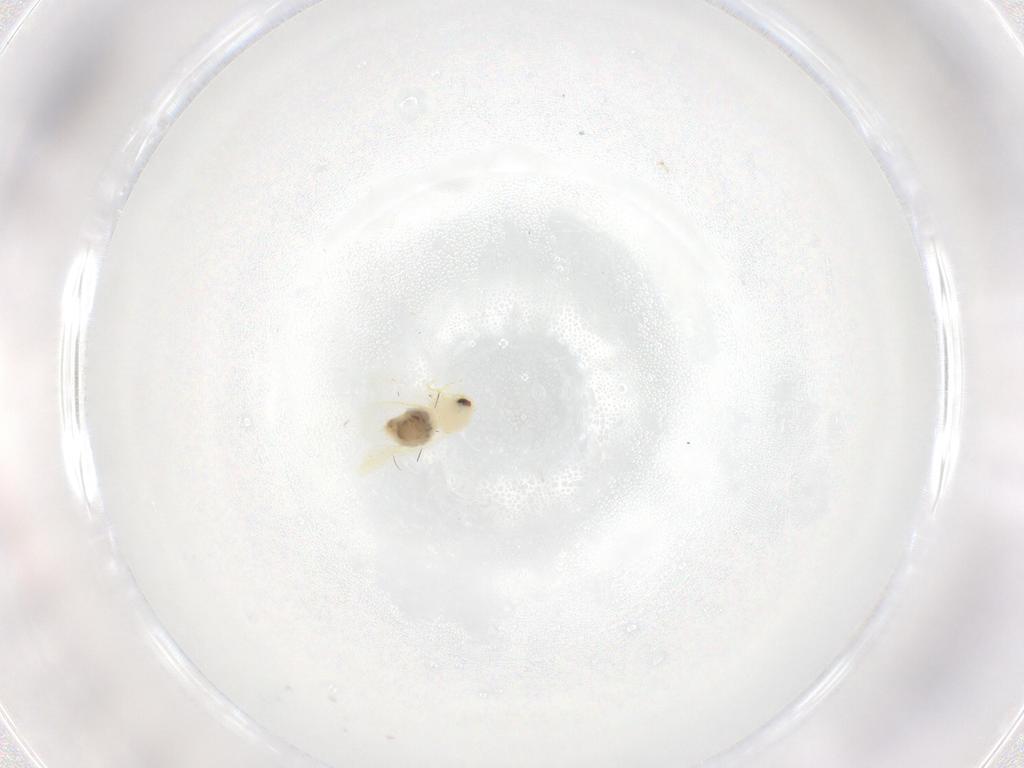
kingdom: Animalia
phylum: Arthropoda
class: Insecta
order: Hemiptera
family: Aleyrodidae
